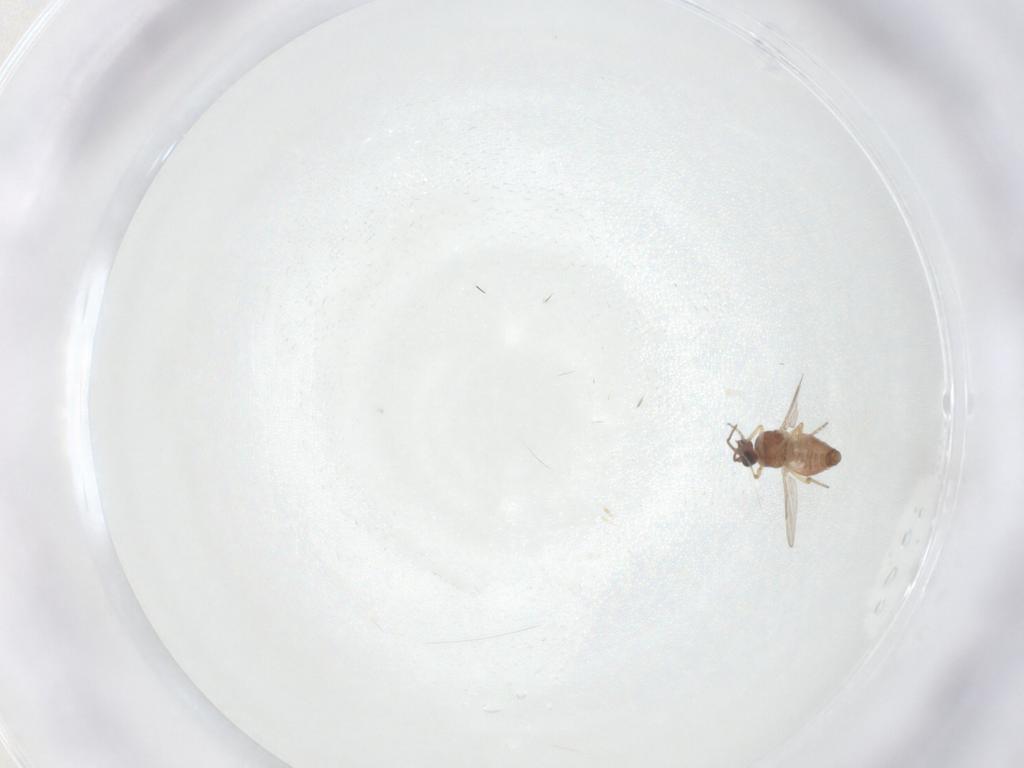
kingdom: Animalia
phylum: Arthropoda
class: Insecta
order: Diptera
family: Ceratopogonidae
